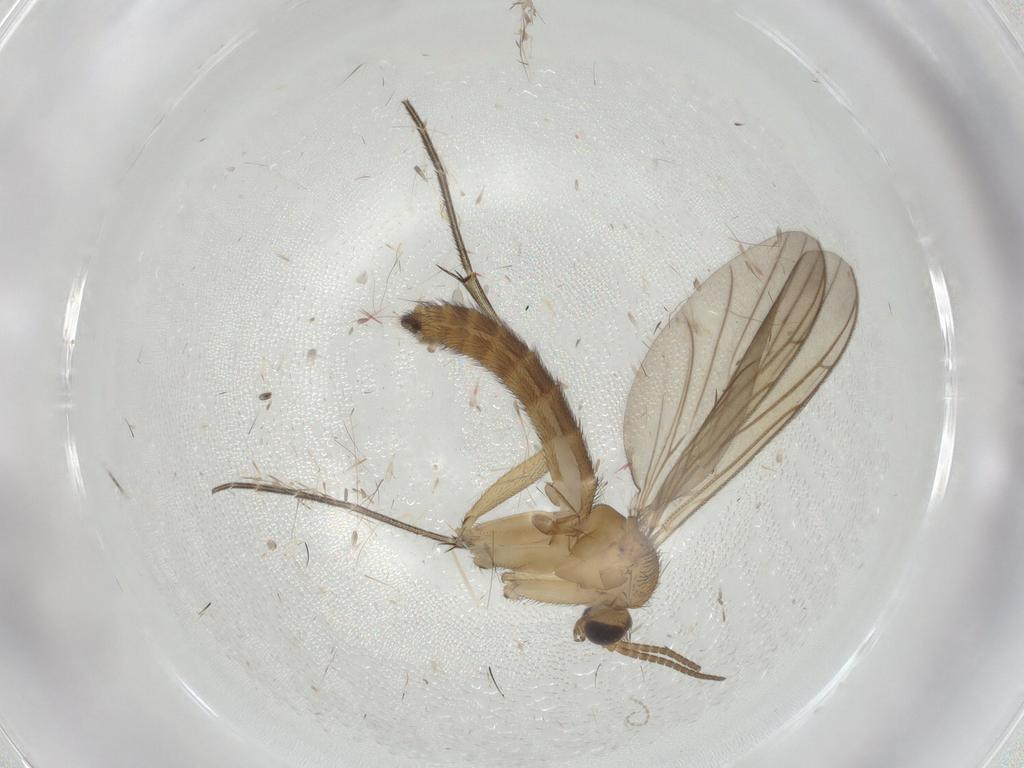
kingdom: Animalia
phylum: Arthropoda
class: Insecta
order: Diptera
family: Keroplatidae
